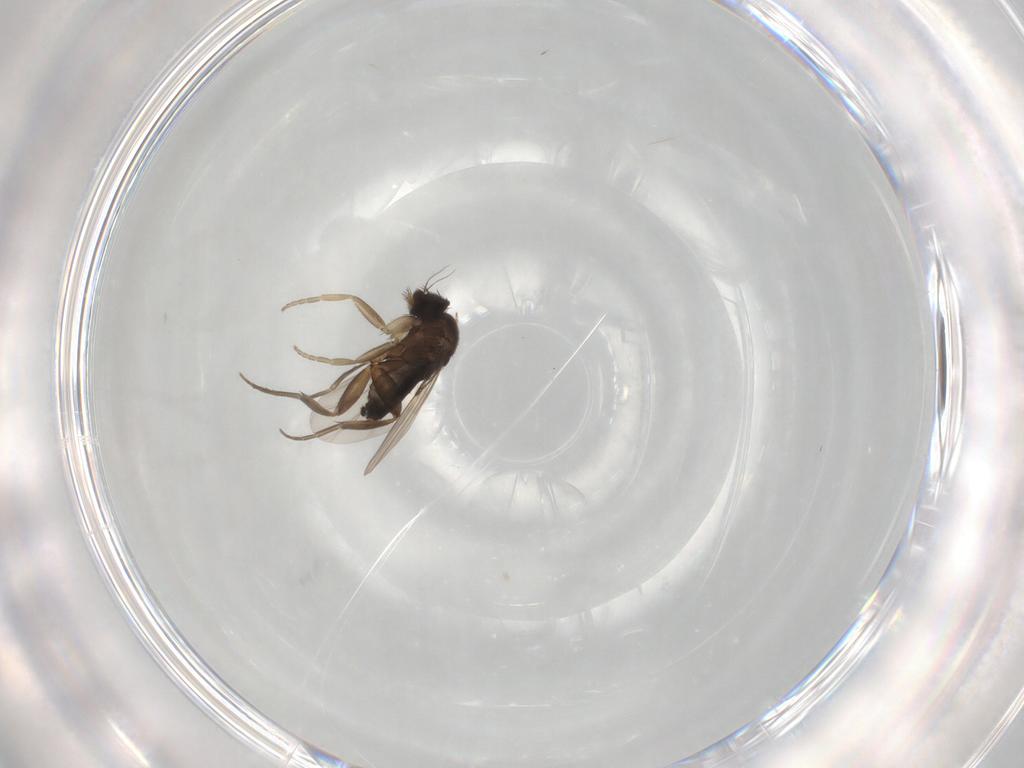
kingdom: Animalia
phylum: Arthropoda
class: Insecta
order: Diptera
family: Phoridae
